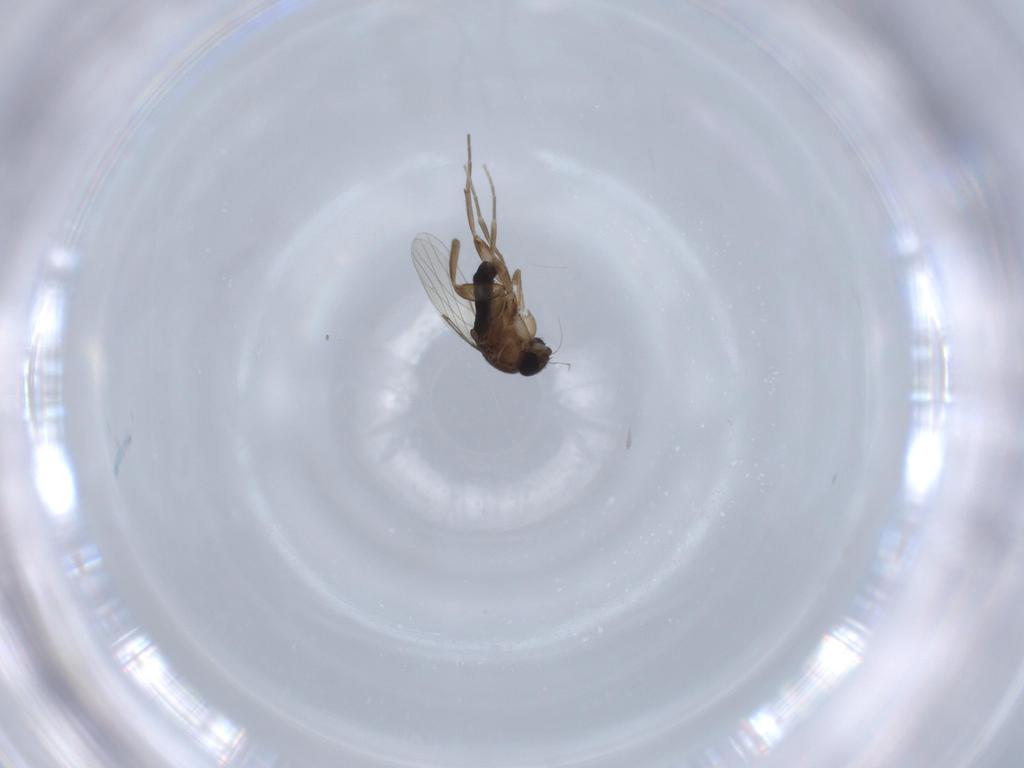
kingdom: Animalia
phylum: Arthropoda
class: Insecta
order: Diptera
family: Phoridae
